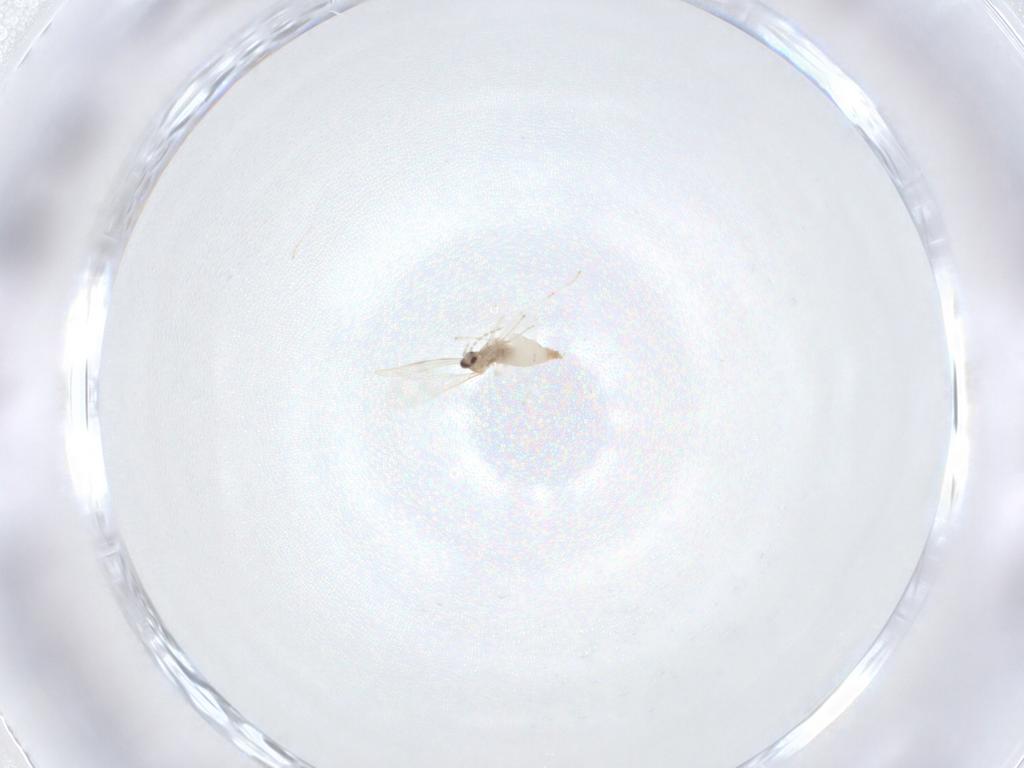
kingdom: Animalia
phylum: Arthropoda
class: Insecta
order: Diptera
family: Cecidomyiidae
